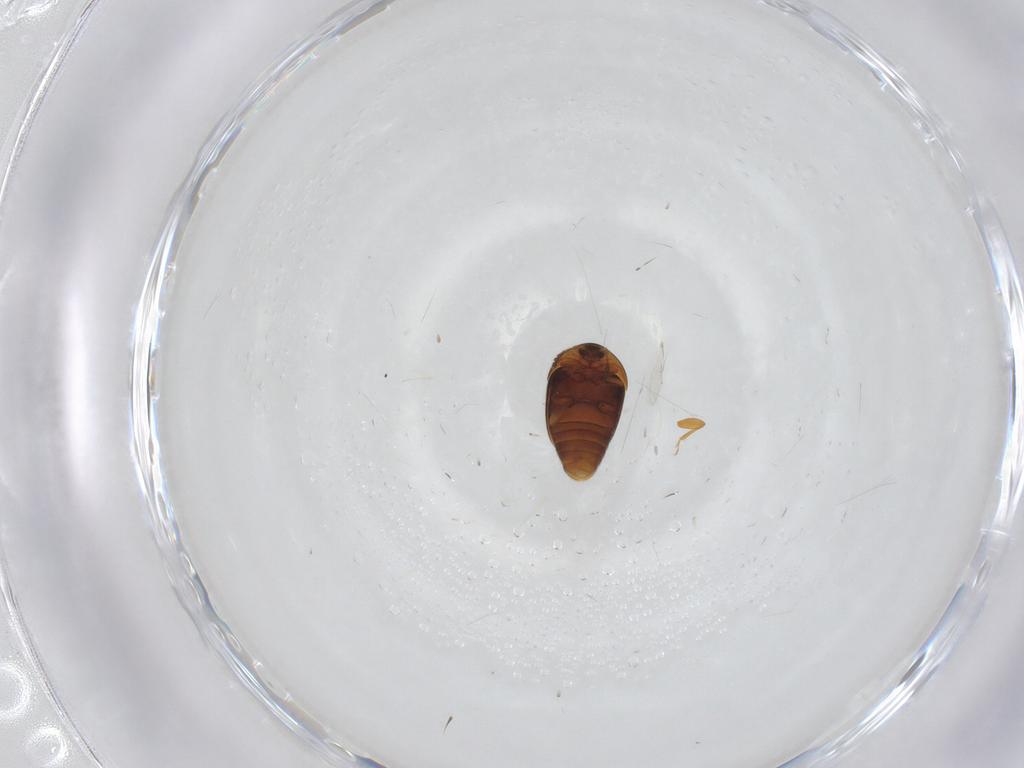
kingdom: Animalia
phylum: Arthropoda
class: Insecta
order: Coleoptera
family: Corylophidae
